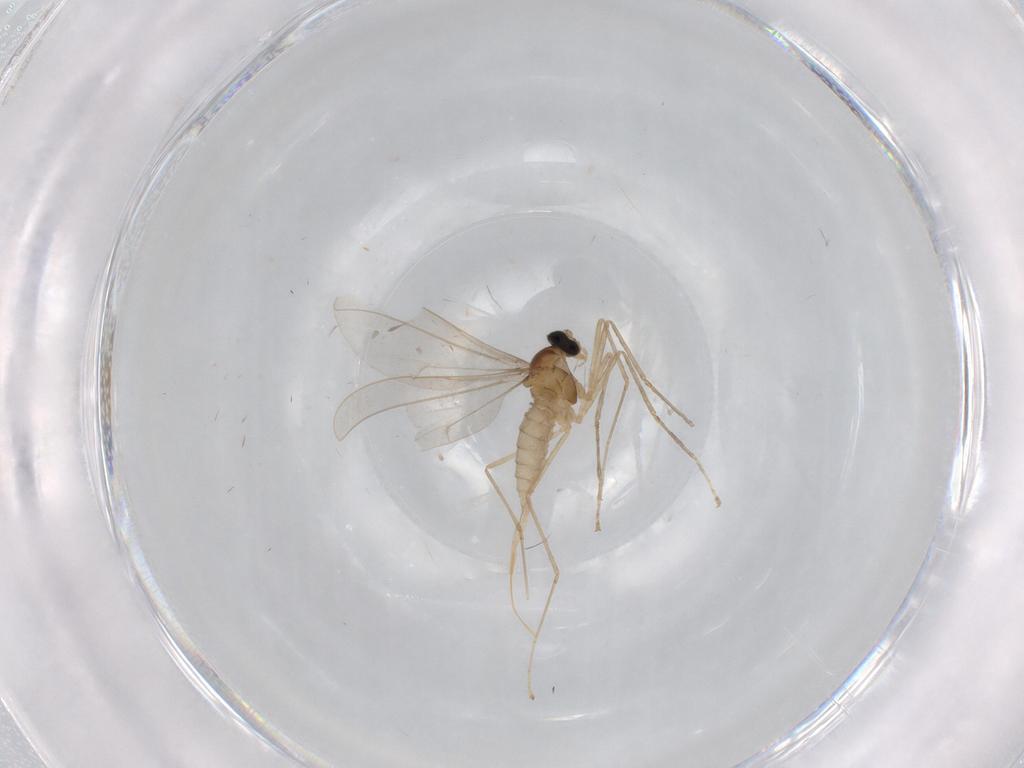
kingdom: Animalia
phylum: Arthropoda
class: Insecta
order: Diptera
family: Cecidomyiidae
